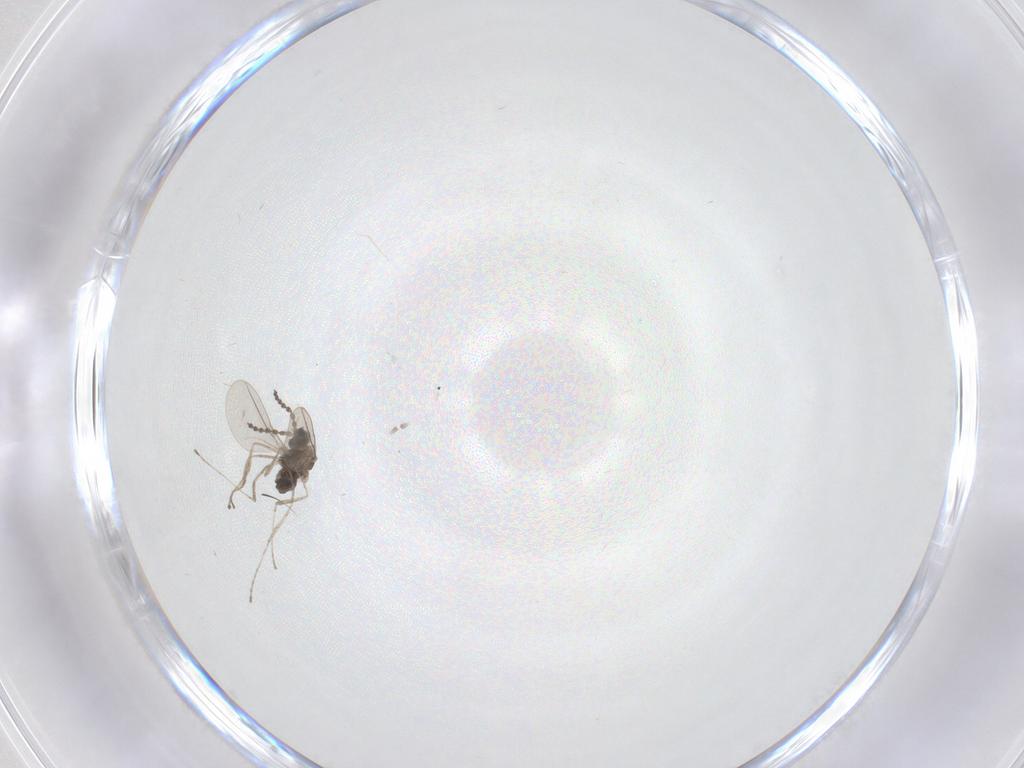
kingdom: Animalia
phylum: Arthropoda
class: Insecta
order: Diptera
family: Cecidomyiidae
